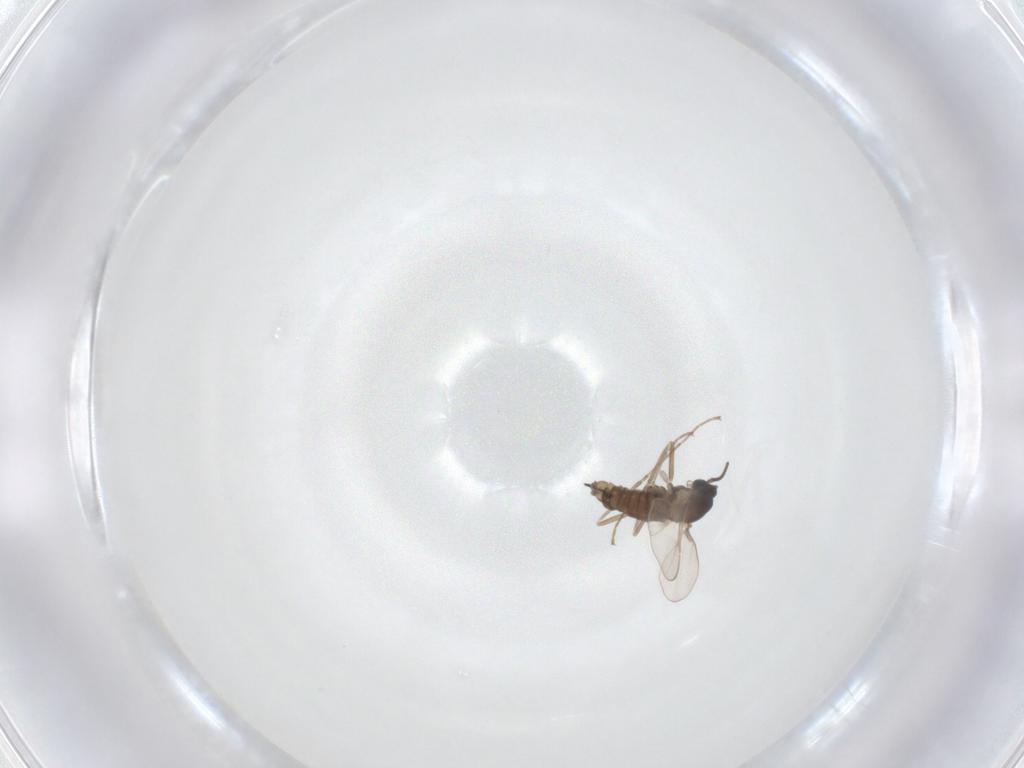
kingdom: Animalia
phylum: Arthropoda
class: Insecta
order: Diptera
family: Cecidomyiidae
